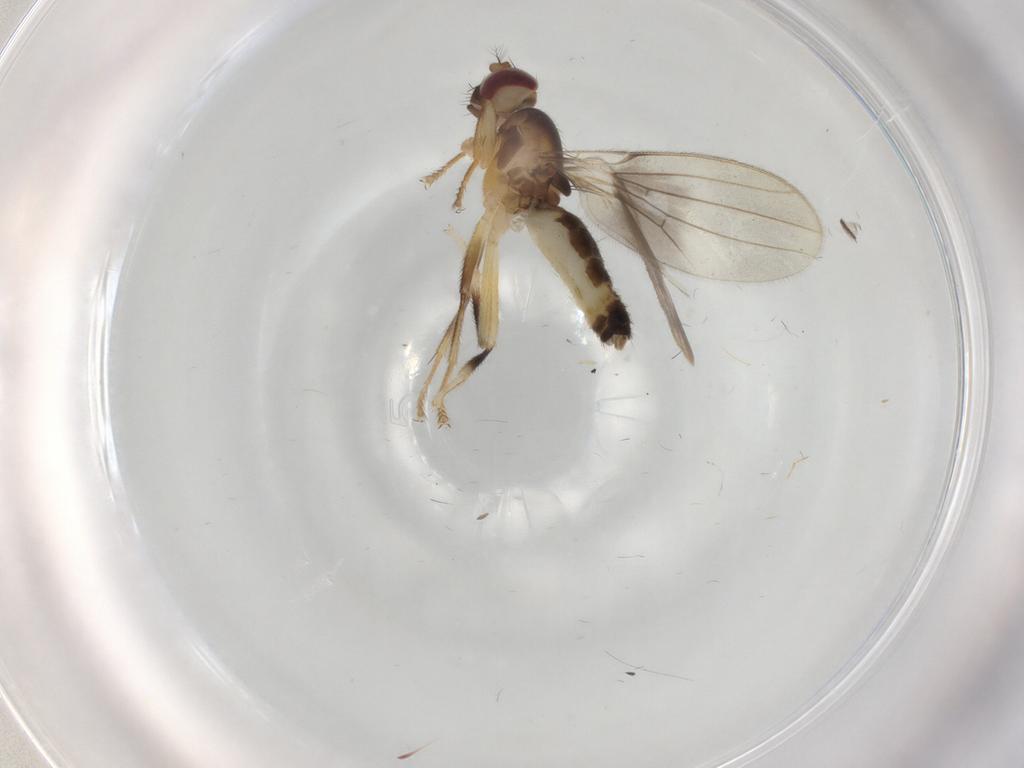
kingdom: Animalia
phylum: Arthropoda
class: Insecta
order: Diptera
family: Periscelididae
